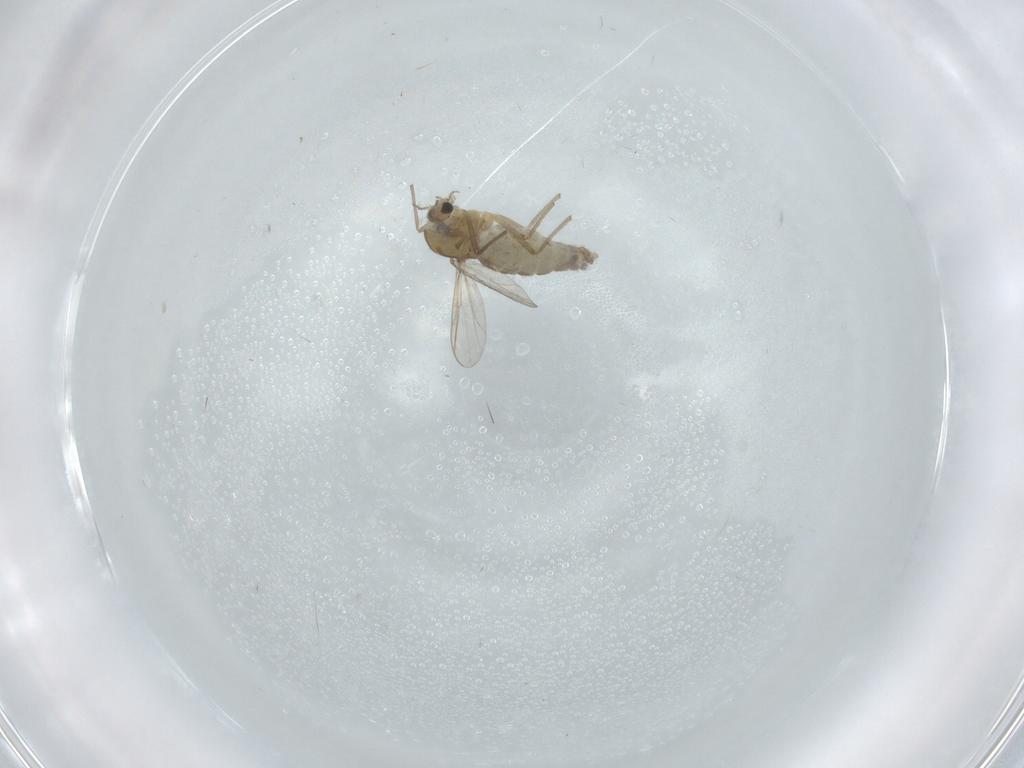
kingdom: Animalia
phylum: Arthropoda
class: Insecta
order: Diptera
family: Chironomidae
